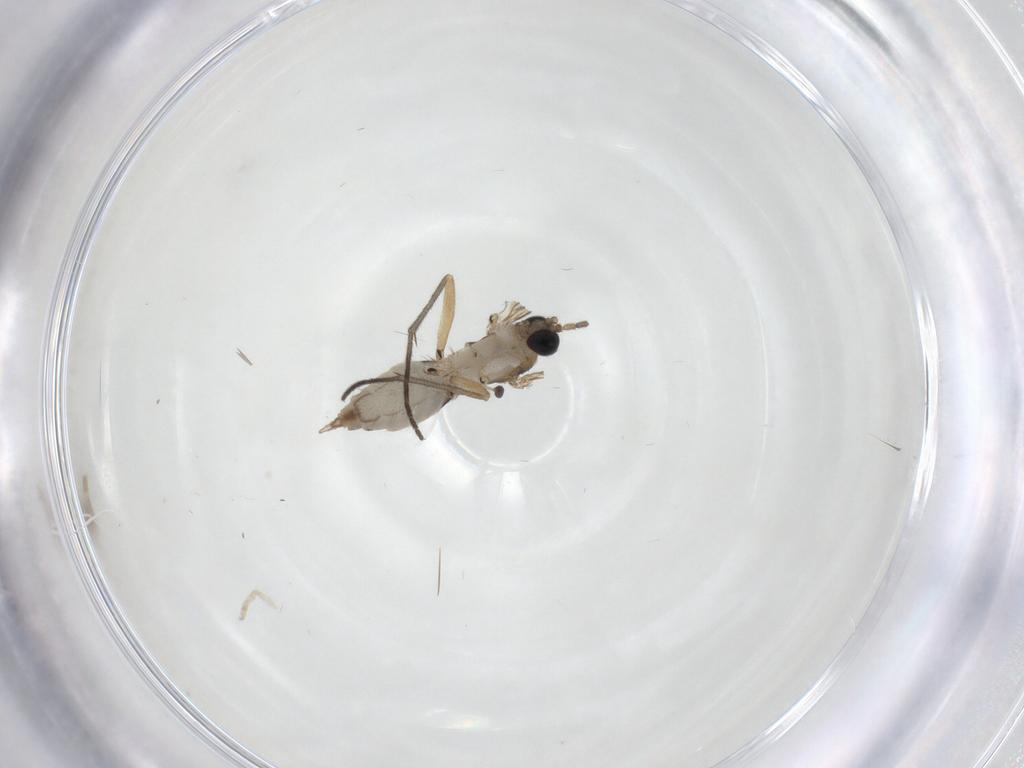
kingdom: Animalia
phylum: Arthropoda
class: Insecta
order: Diptera
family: Sciaridae
